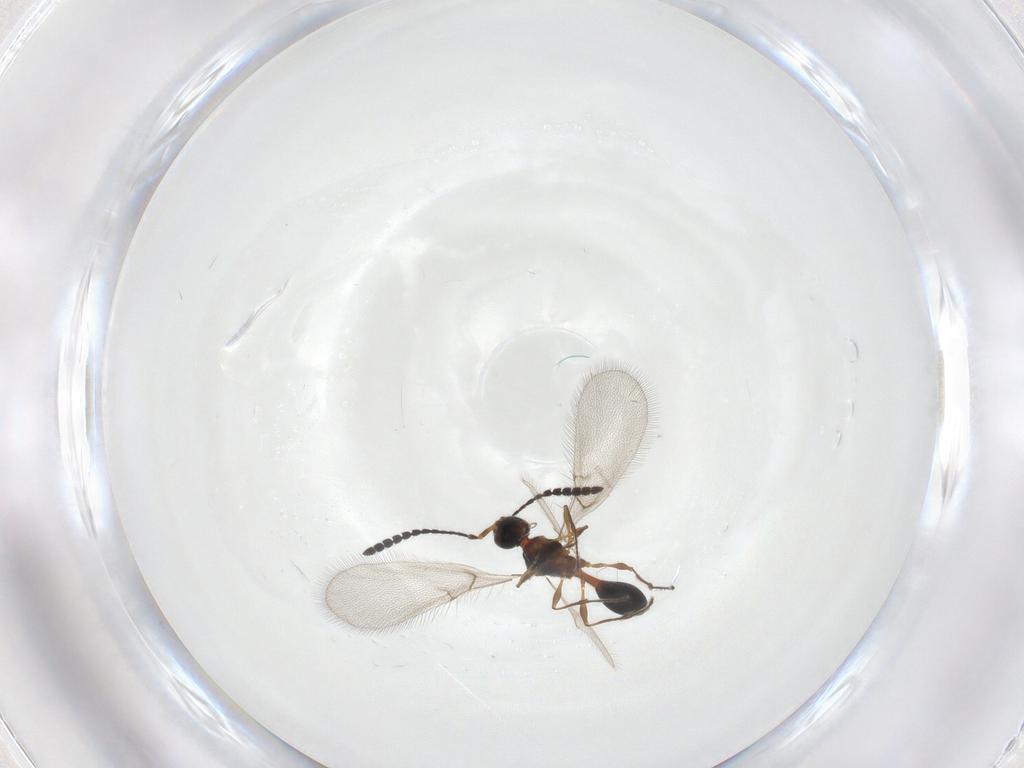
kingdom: Animalia
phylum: Arthropoda
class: Insecta
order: Hymenoptera
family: Diapriidae
